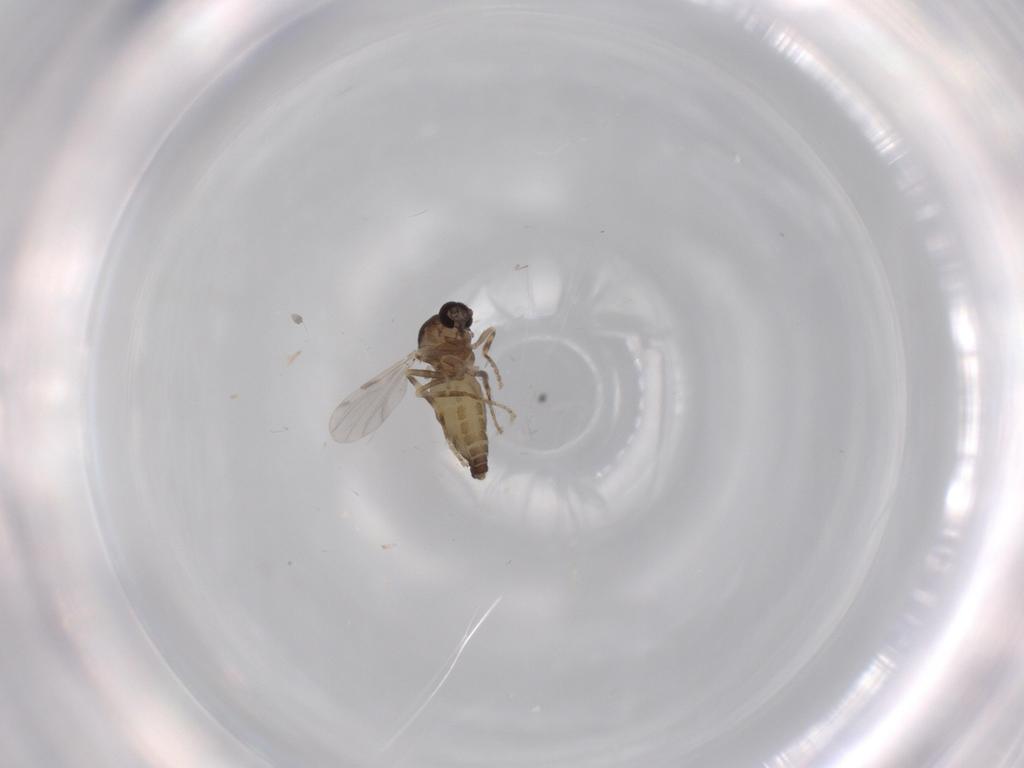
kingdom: Animalia
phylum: Arthropoda
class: Insecta
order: Diptera
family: Ceratopogonidae
